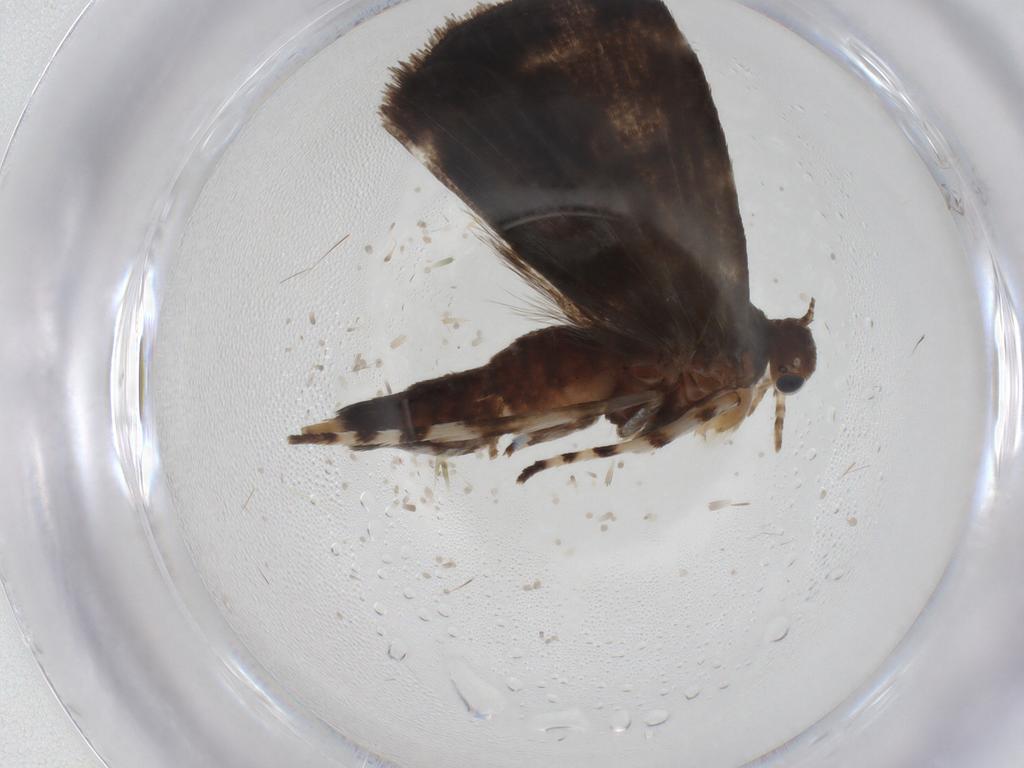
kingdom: Animalia
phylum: Arthropoda
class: Insecta
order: Lepidoptera
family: Choreutidae
